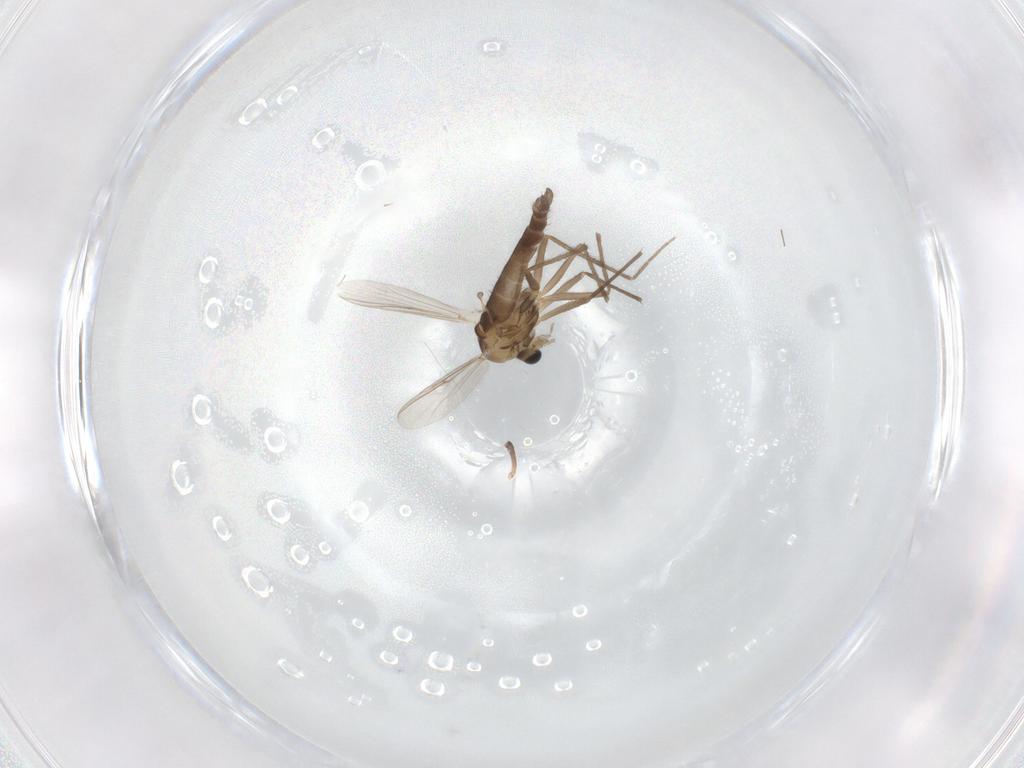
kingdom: Animalia
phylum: Arthropoda
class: Insecta
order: Diptera
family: Chironomidae
